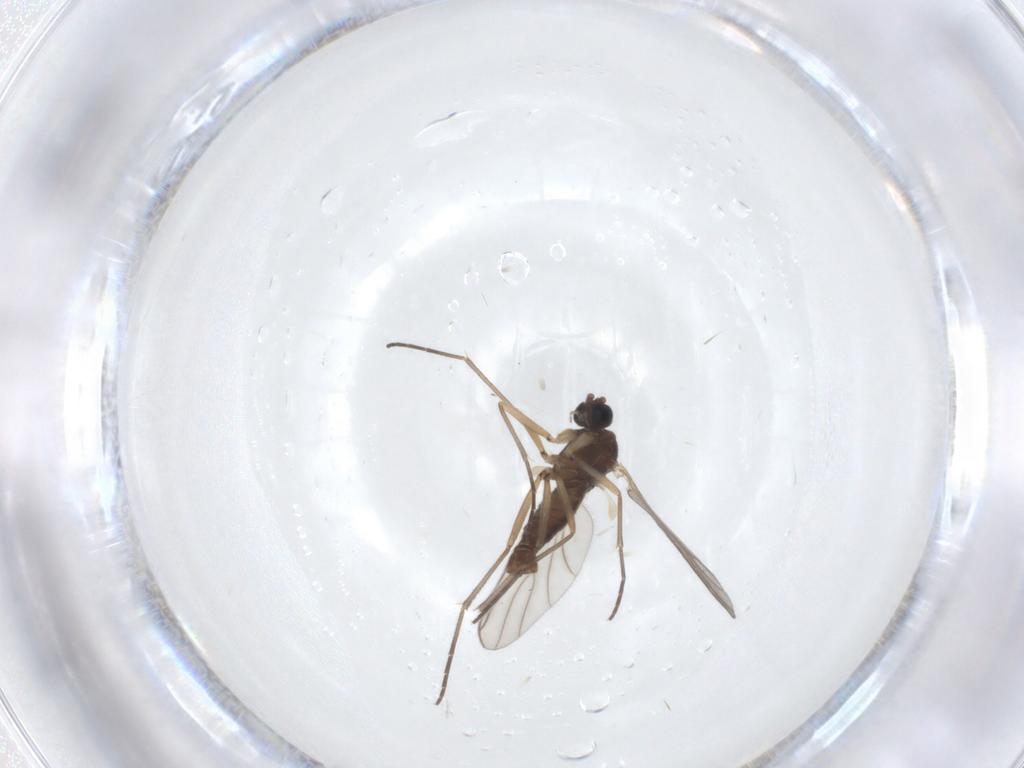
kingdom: Animalia
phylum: Arthropoda
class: Insecta
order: Diptera
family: Sciaridae
